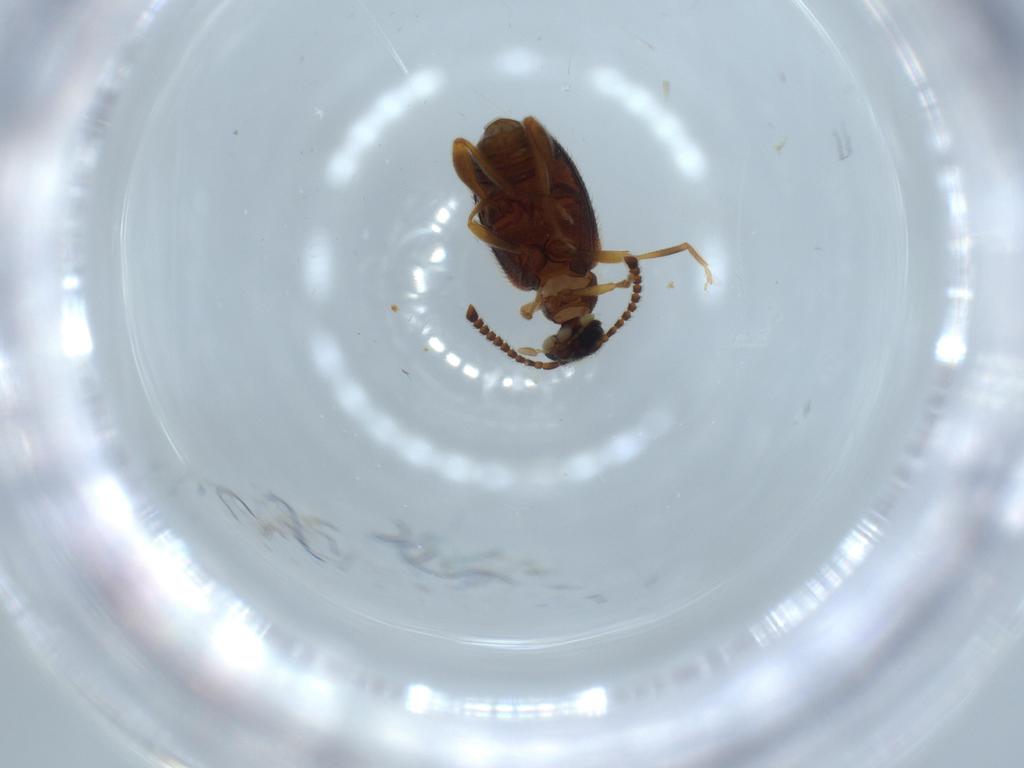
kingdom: Animalia
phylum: Arthropoda
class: Insecta
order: Coleoptera
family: Aderidae
